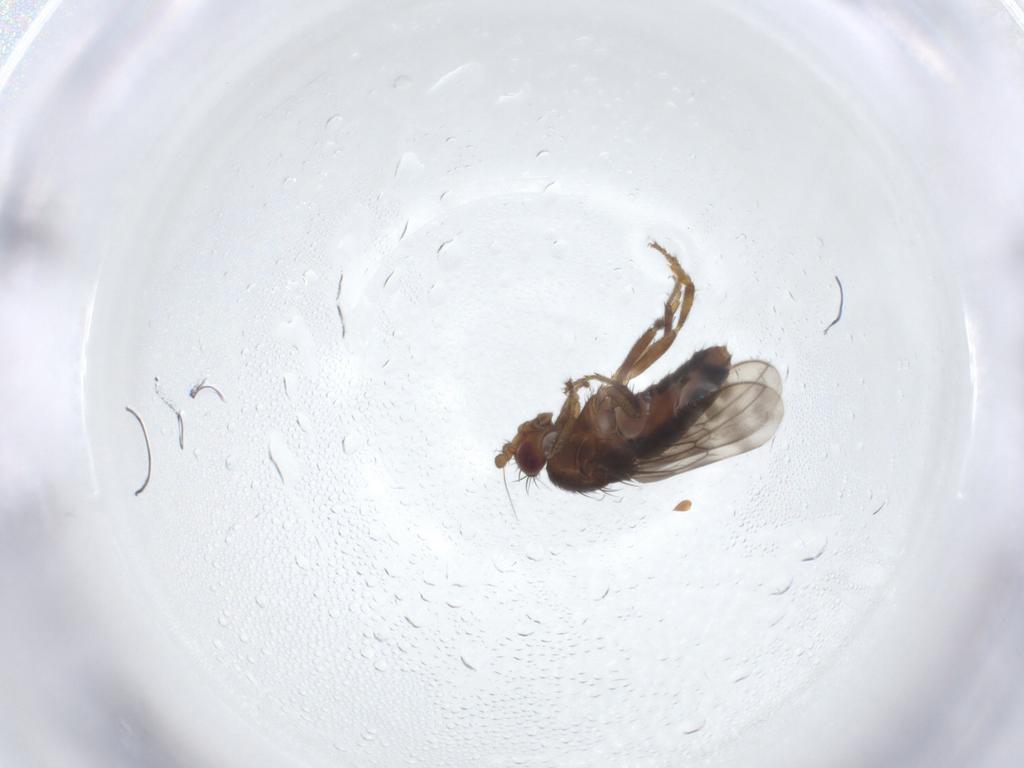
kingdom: Animalia
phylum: Arthropoda
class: Insecta
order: Diptera
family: Sphaeroceridae
